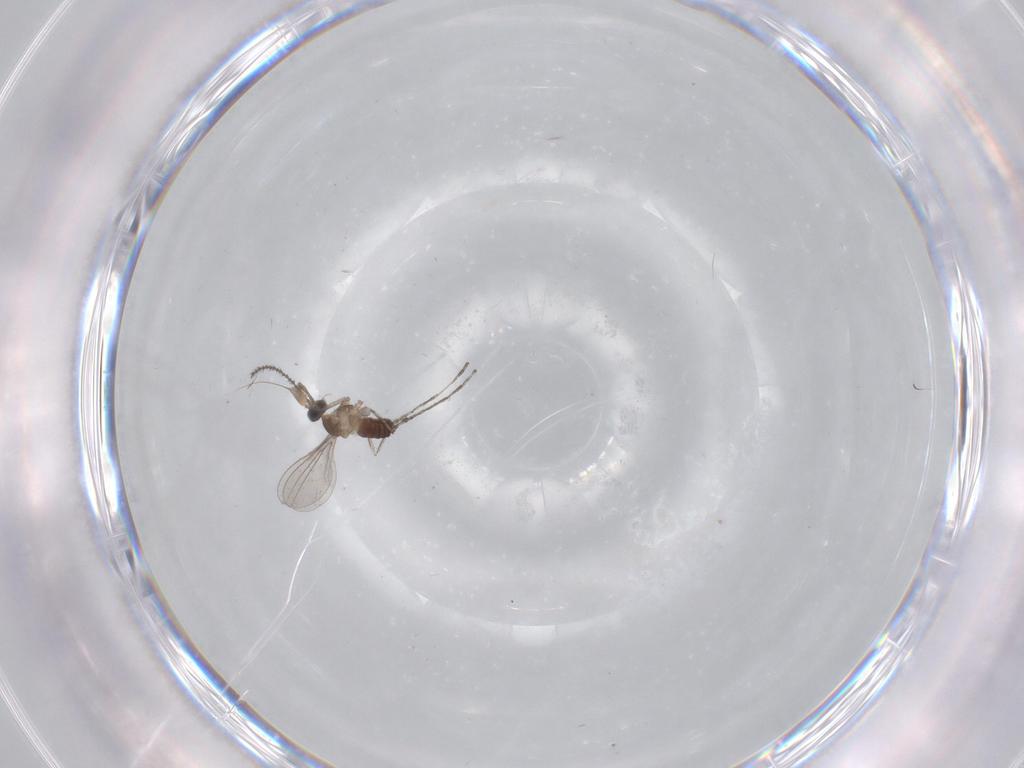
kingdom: Animalia
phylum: Arthropoda
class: Insecta
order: Diptera
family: Cecidomyiidae
